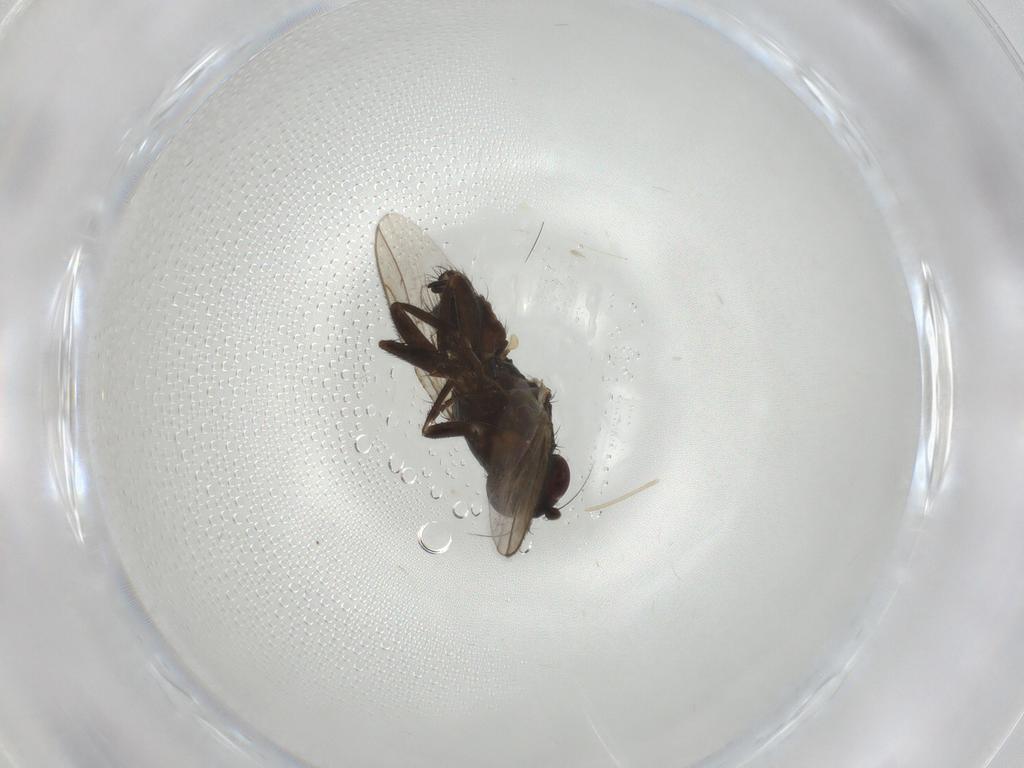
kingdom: Animalia
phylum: Arthropoda
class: Insecta
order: Diptera
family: Sphaeroceridae
